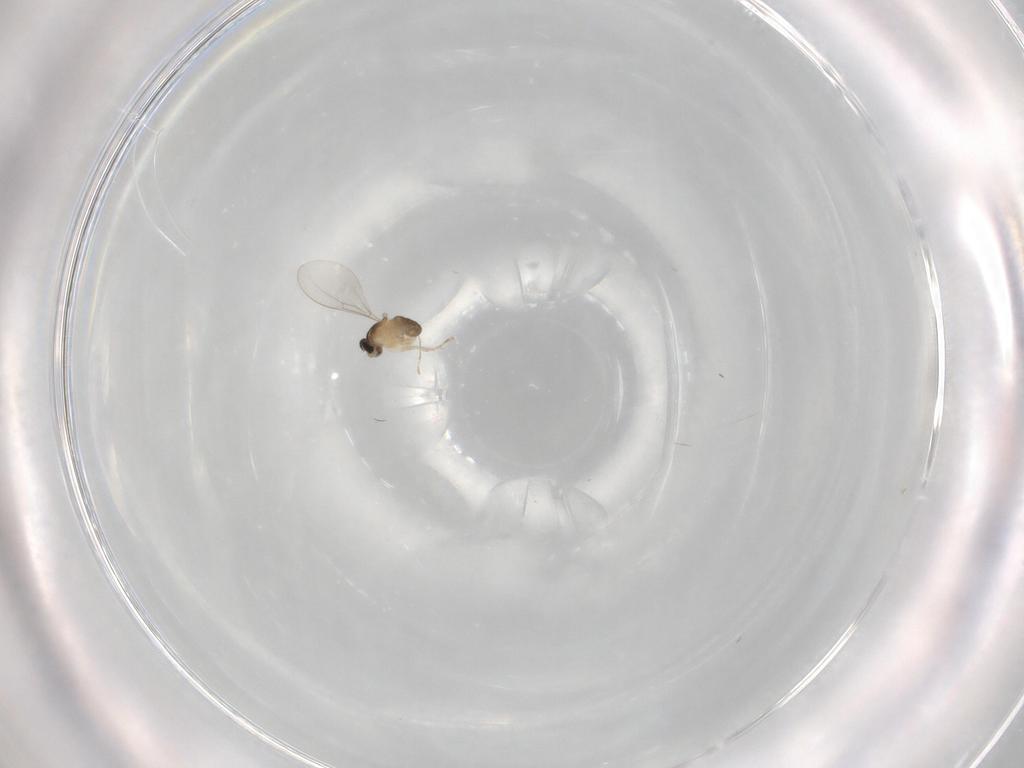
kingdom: Animalia
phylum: Arthropoda
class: Insecta
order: Diptera
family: Cecidomyiidae
